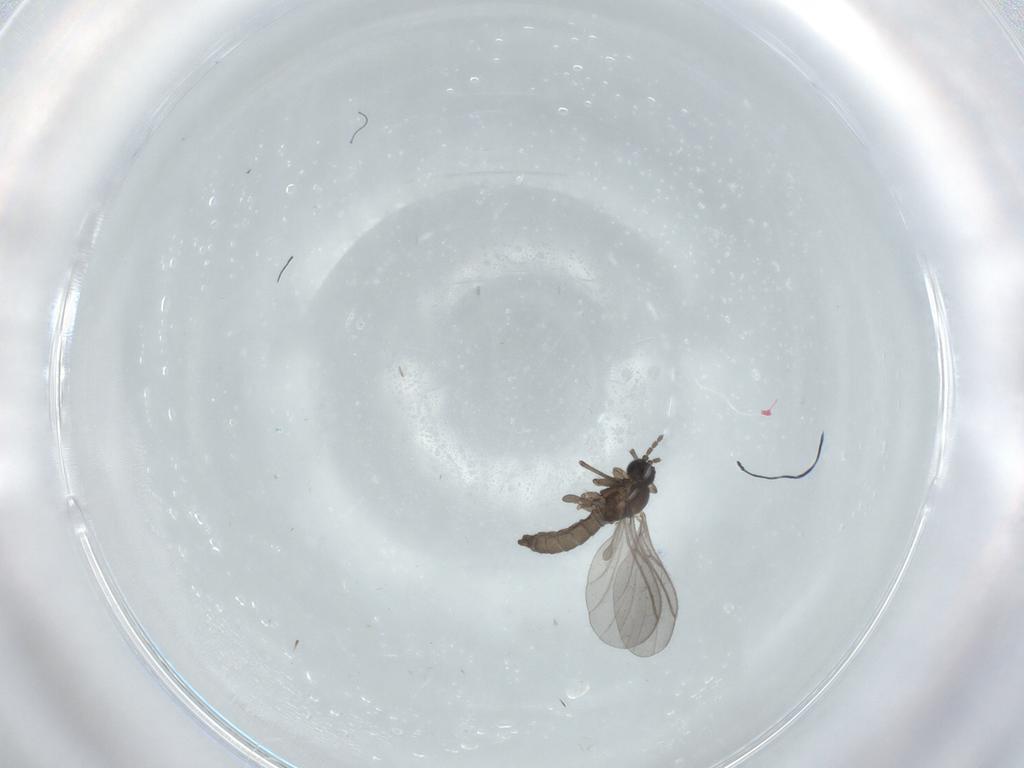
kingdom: Animalia
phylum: Arthropoda
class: Insecta
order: Diptera
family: Sciaridae
